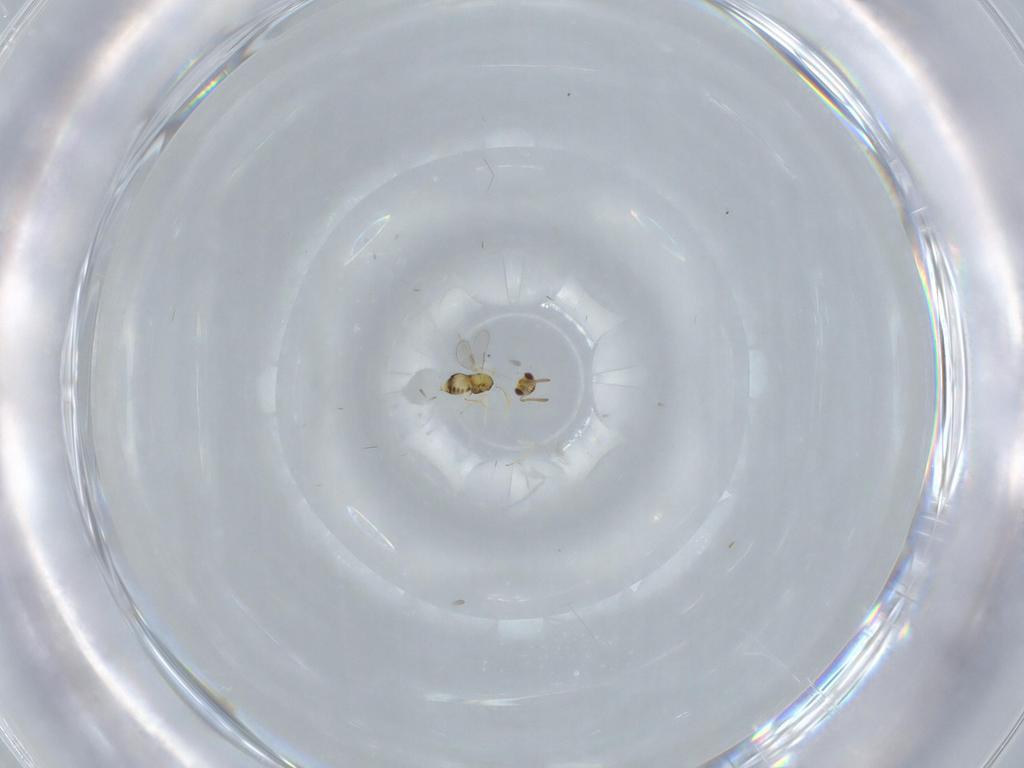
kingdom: Animalia
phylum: Arthropoda
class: Insecta
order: Hymenoptera
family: Aphelinidae
